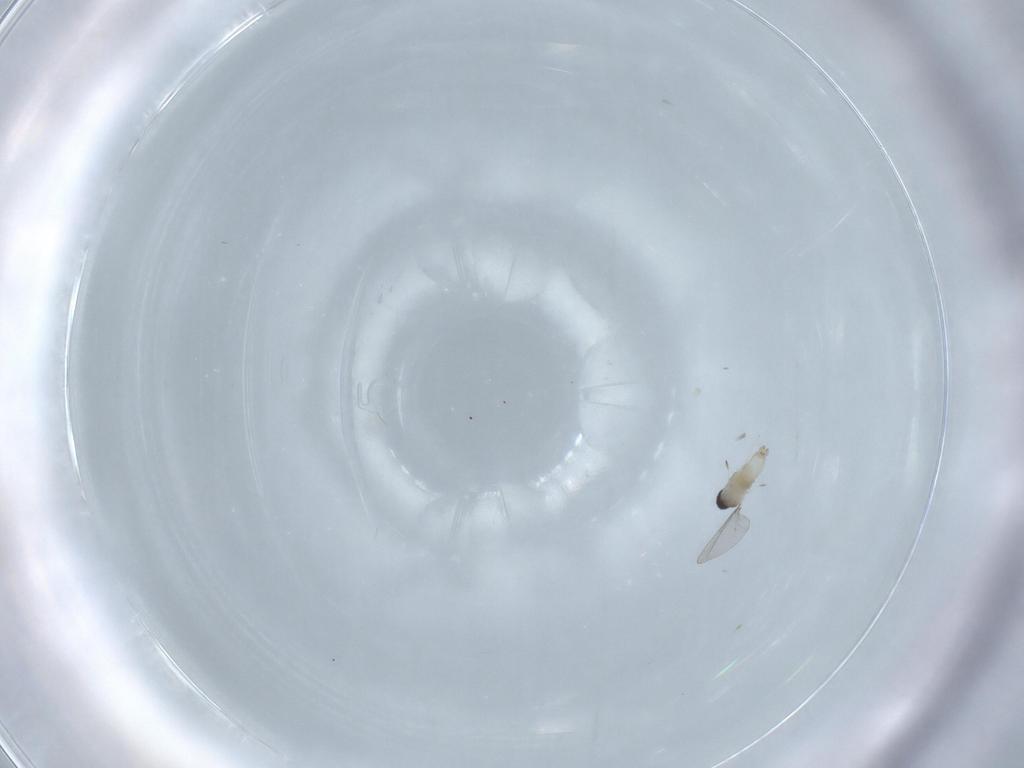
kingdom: Animalia
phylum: Arthropoda
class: Insecta
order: Diptera
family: Cecidomyiidae
